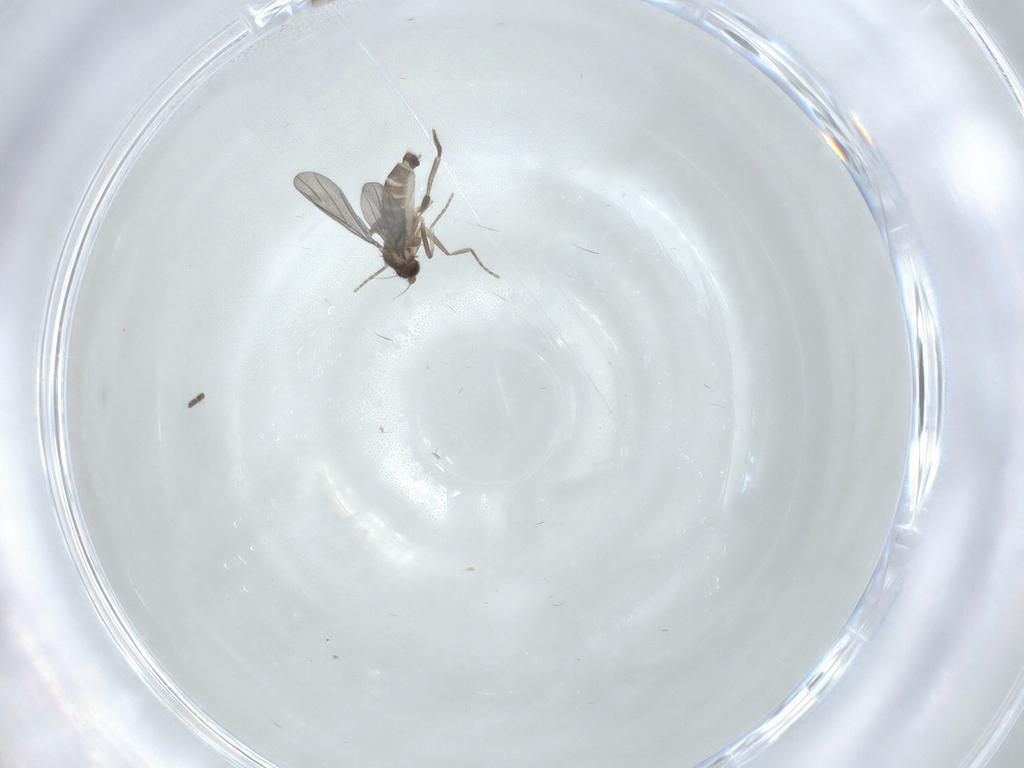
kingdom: Animalia
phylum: Arthropoda
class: Insecta
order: Diptera
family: Phoridae
